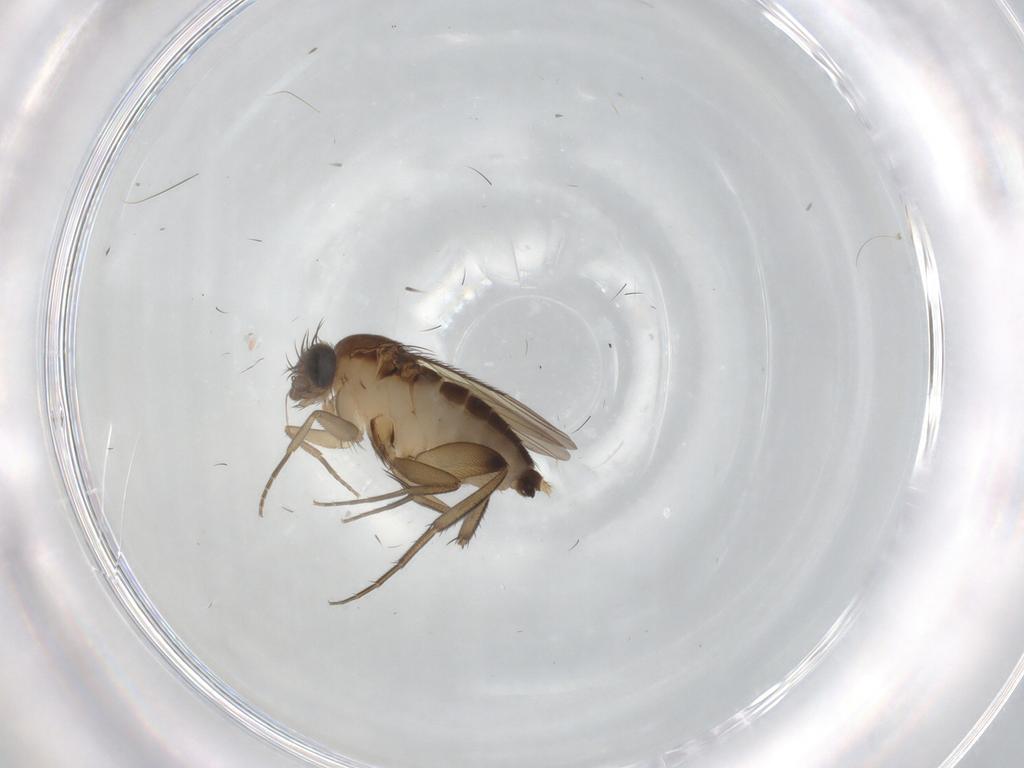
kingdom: Animalia
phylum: Arthropoda
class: Insecta
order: Diptera
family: Phoridae
